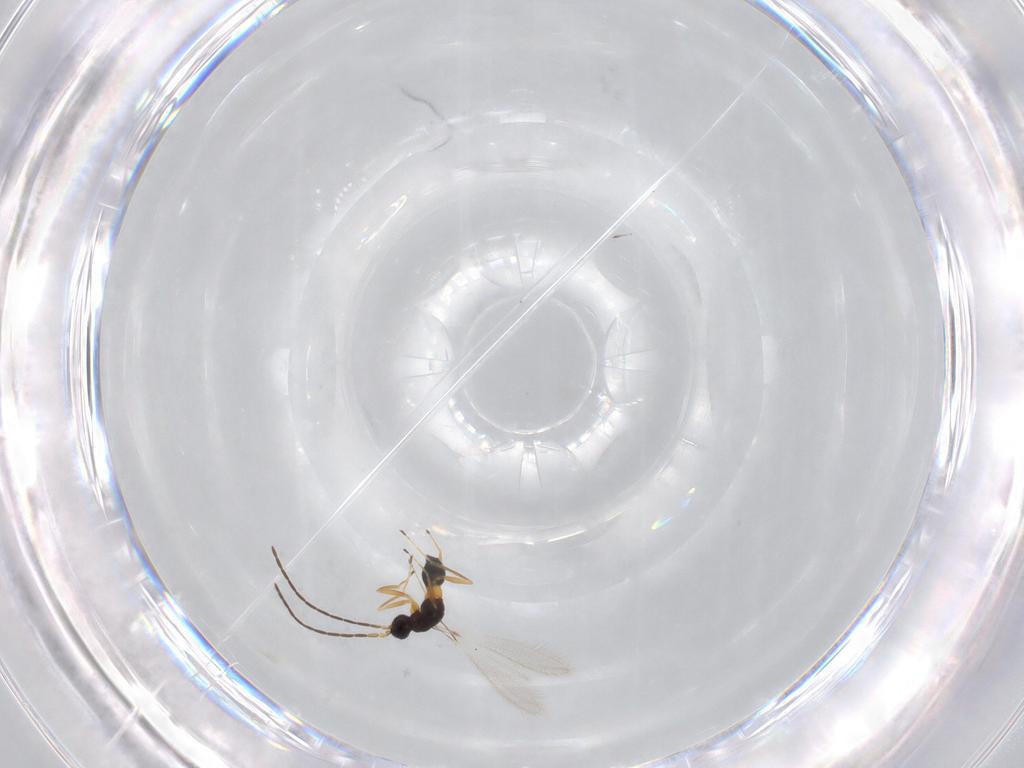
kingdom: Animalia
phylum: Arthropoda
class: Insecta
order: Hymenoptera
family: Mymaridae
